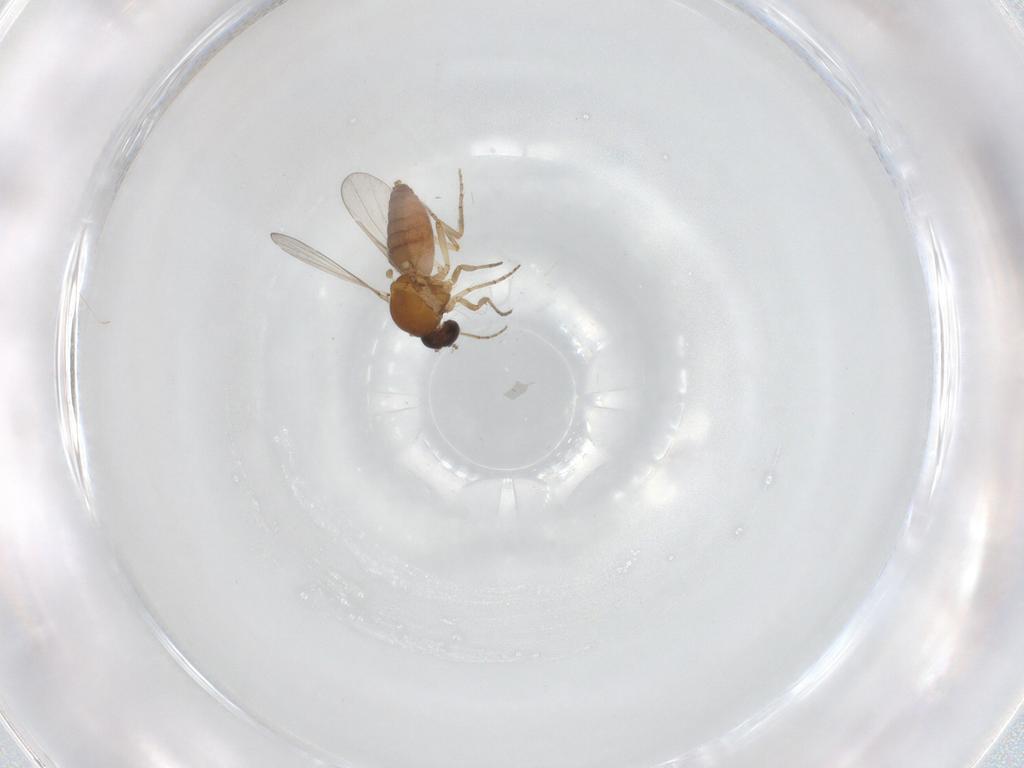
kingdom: Animalia
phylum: Arthropoda
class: Insecta
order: Diptera
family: Ceratopogonidae
